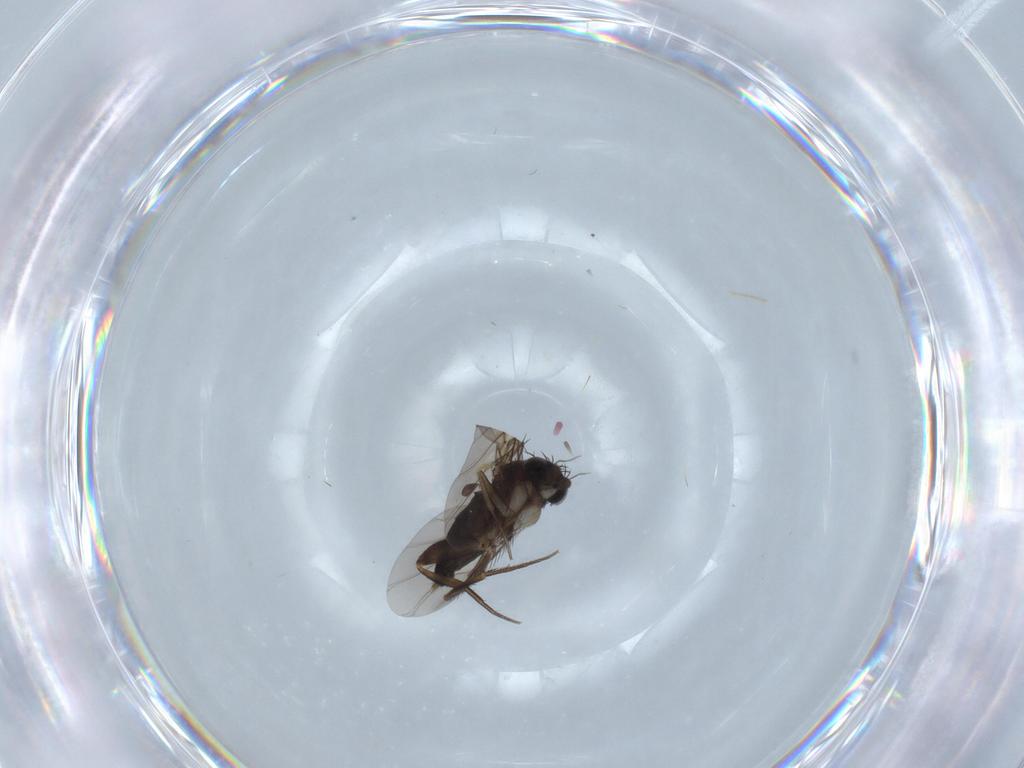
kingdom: Animalia
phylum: Arthropoda
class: Insecta
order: Diptera
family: Phoridae
